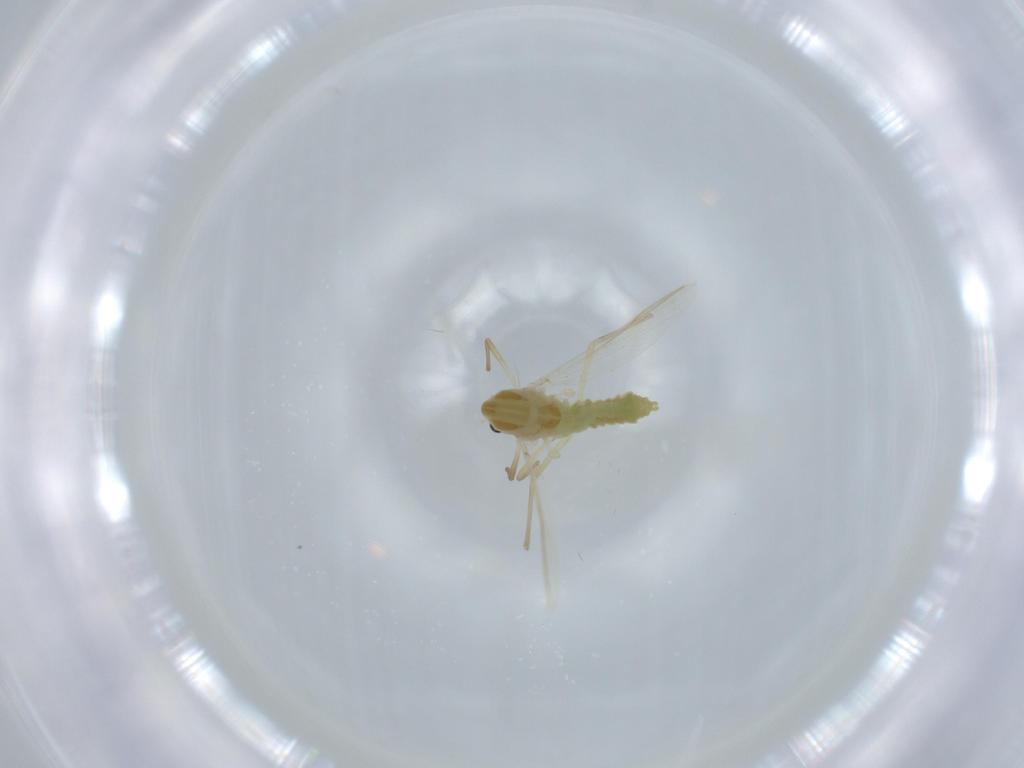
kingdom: Animalia
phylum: Arthropoda
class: Insecta
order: Diptera
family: Chironomidae
